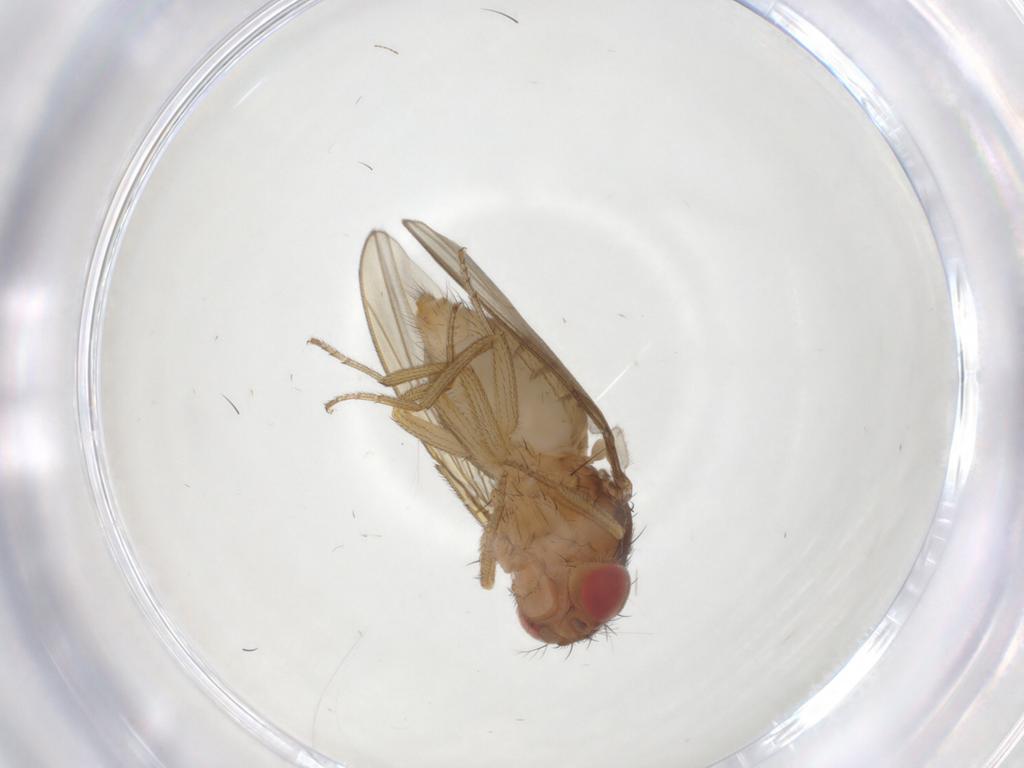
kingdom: Animalia
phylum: Arthropoda
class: Insecta
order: Diptera
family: Drosophilidae
